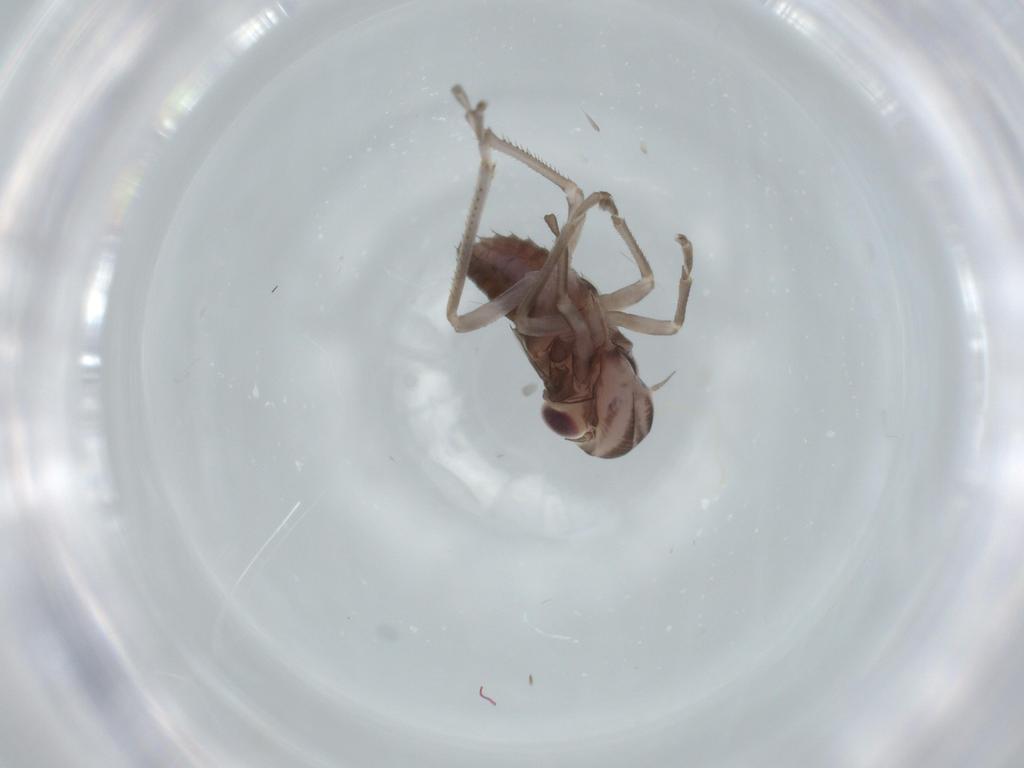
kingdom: Animalia
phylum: Arthropoda
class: Insecta
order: Hemiptera
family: Cicadellidae
